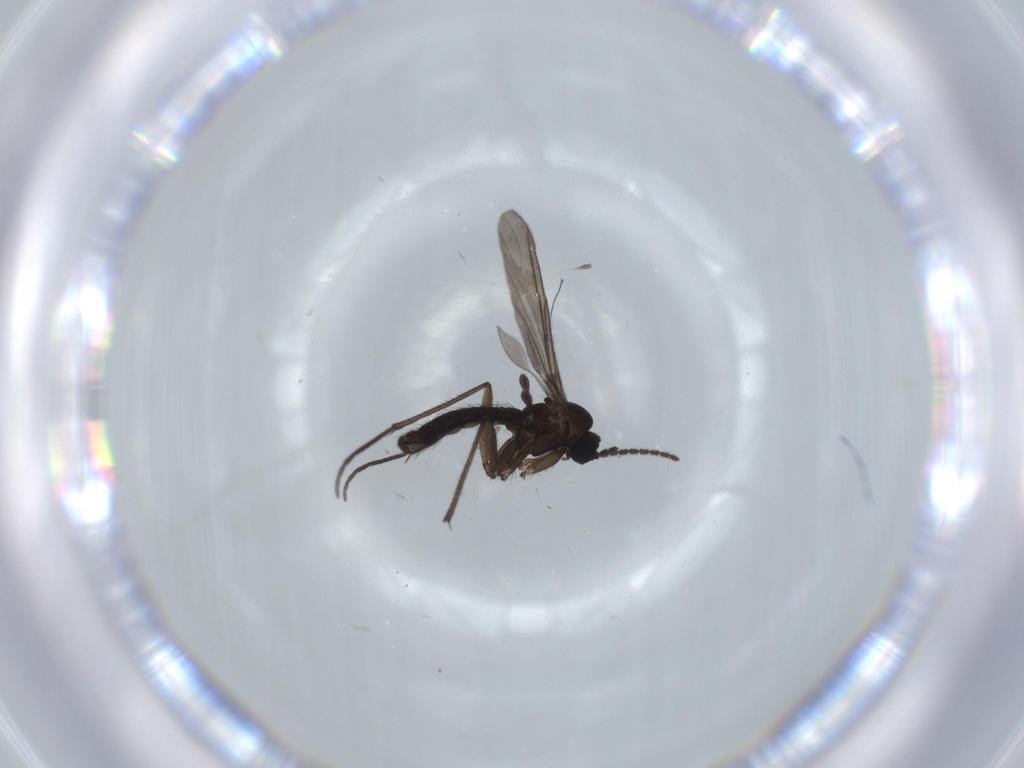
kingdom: Animalia
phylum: Arthropoda
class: Insecta
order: Diptera
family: Sciaridae
